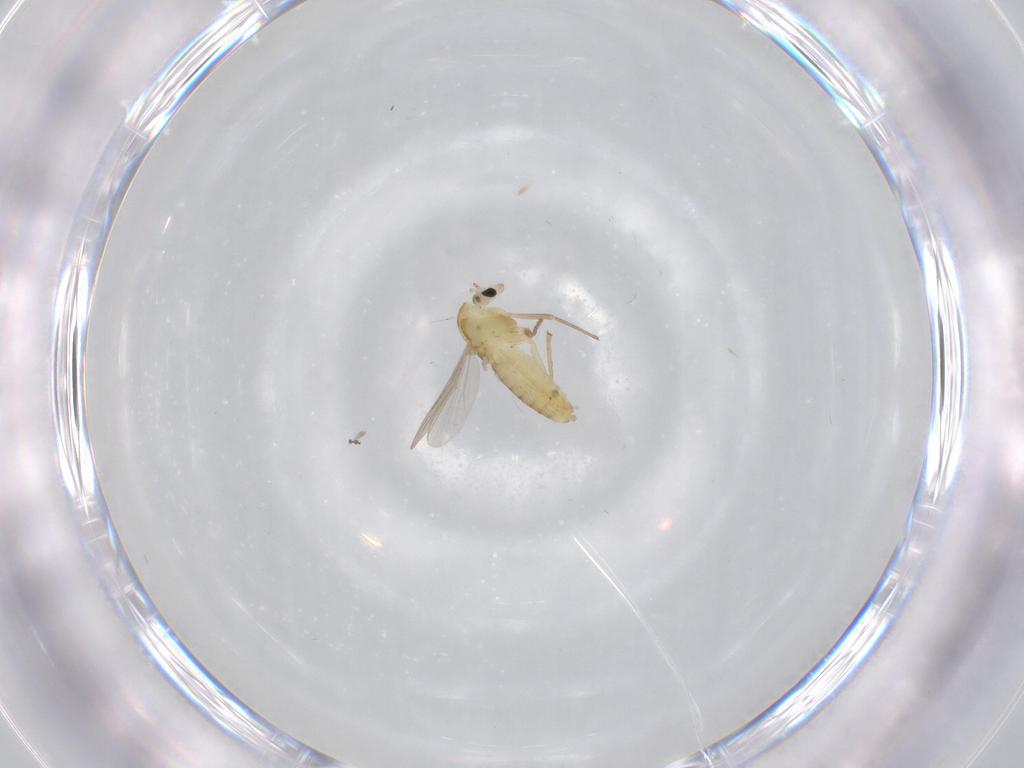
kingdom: Animalia
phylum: Arthropoda
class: Insecta
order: Diptera
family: Chironomidae
